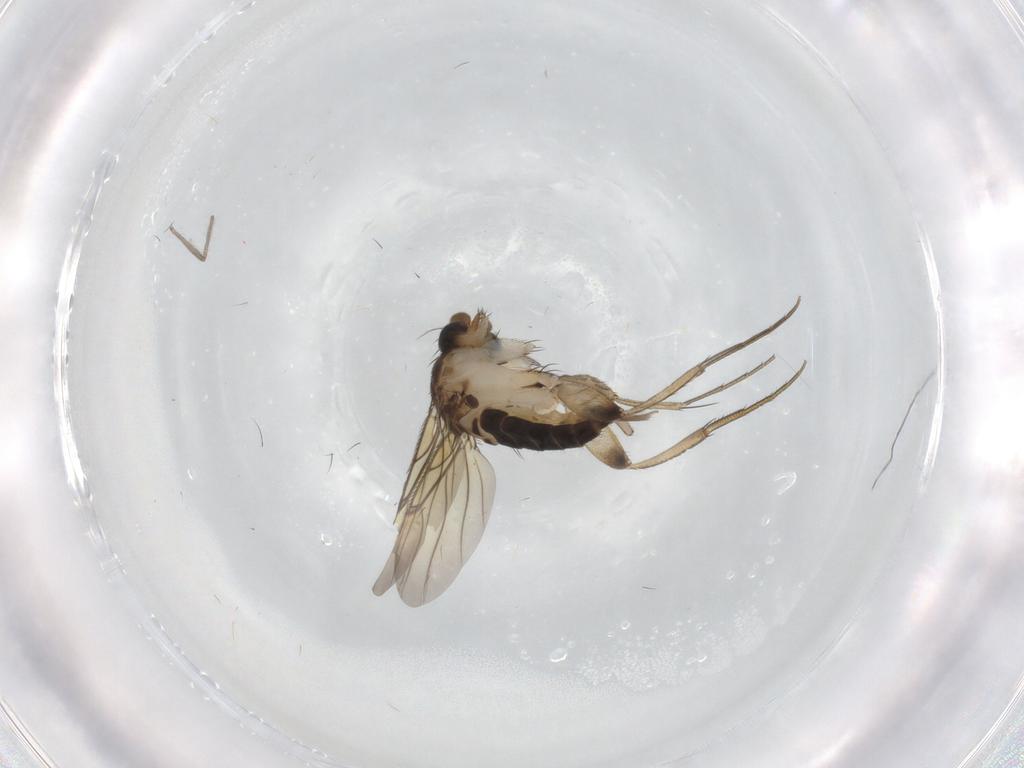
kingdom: Animalia
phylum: Arthropoda
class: Insecta
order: Diptera
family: Phoridae
